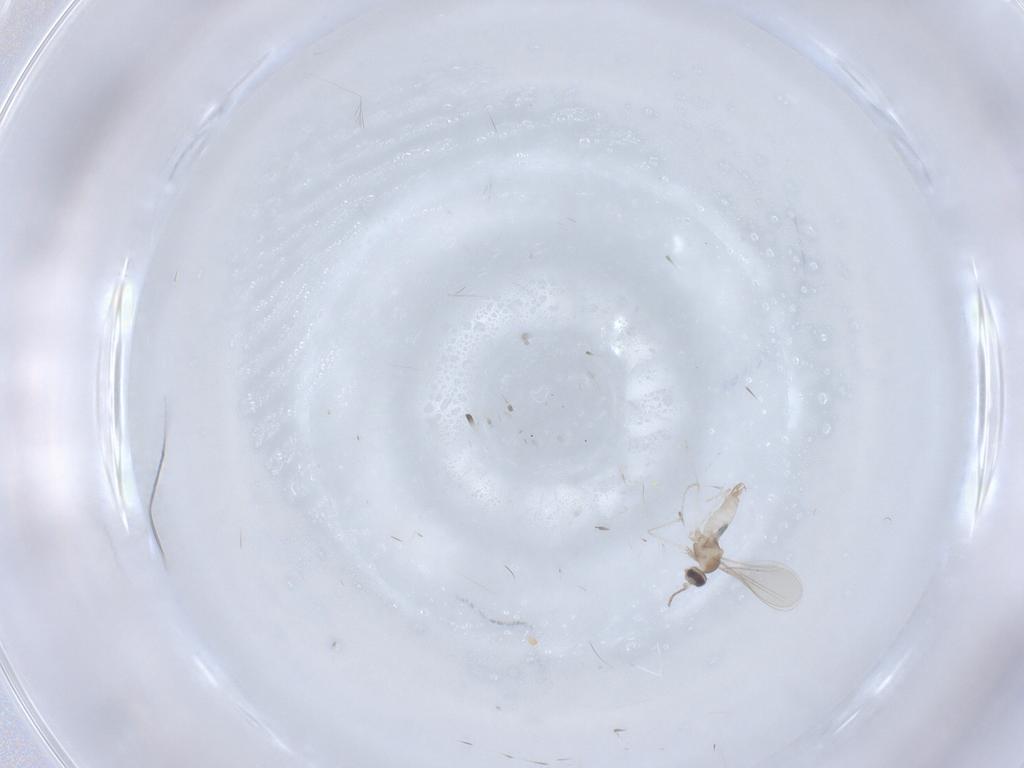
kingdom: Animalia
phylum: Arthropoda
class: Insecta
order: Diptera
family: Cecidomyiidae
